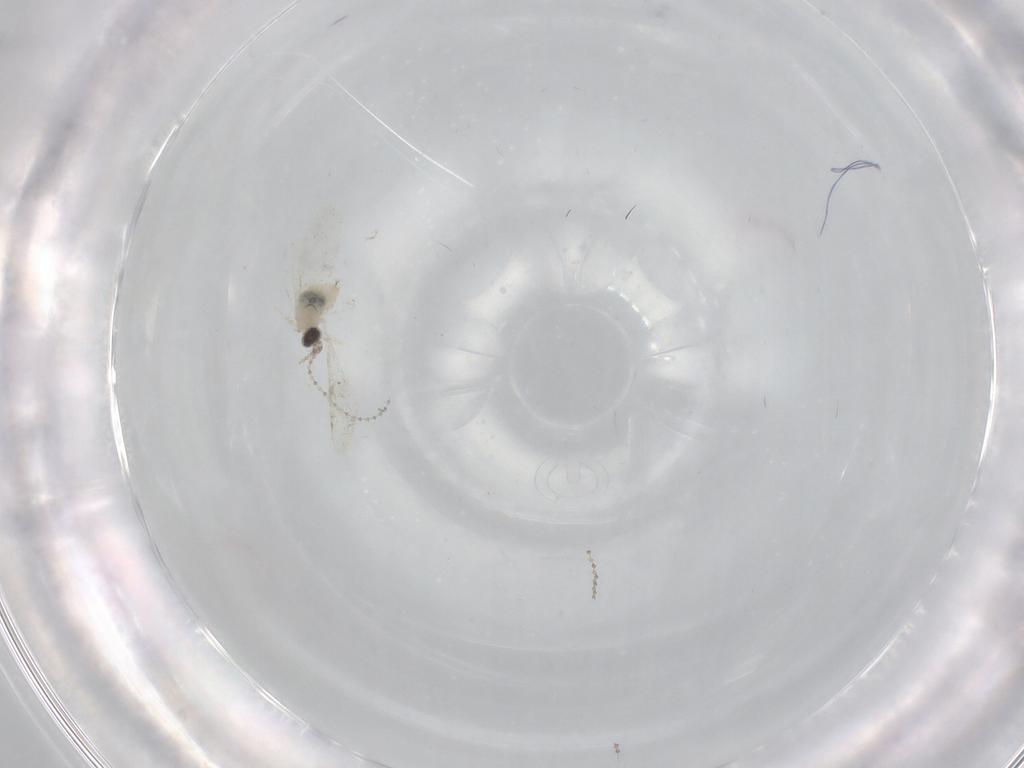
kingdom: Animalia
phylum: Arthropoda
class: Insecta
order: Diptera
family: Cecidomyiidae
